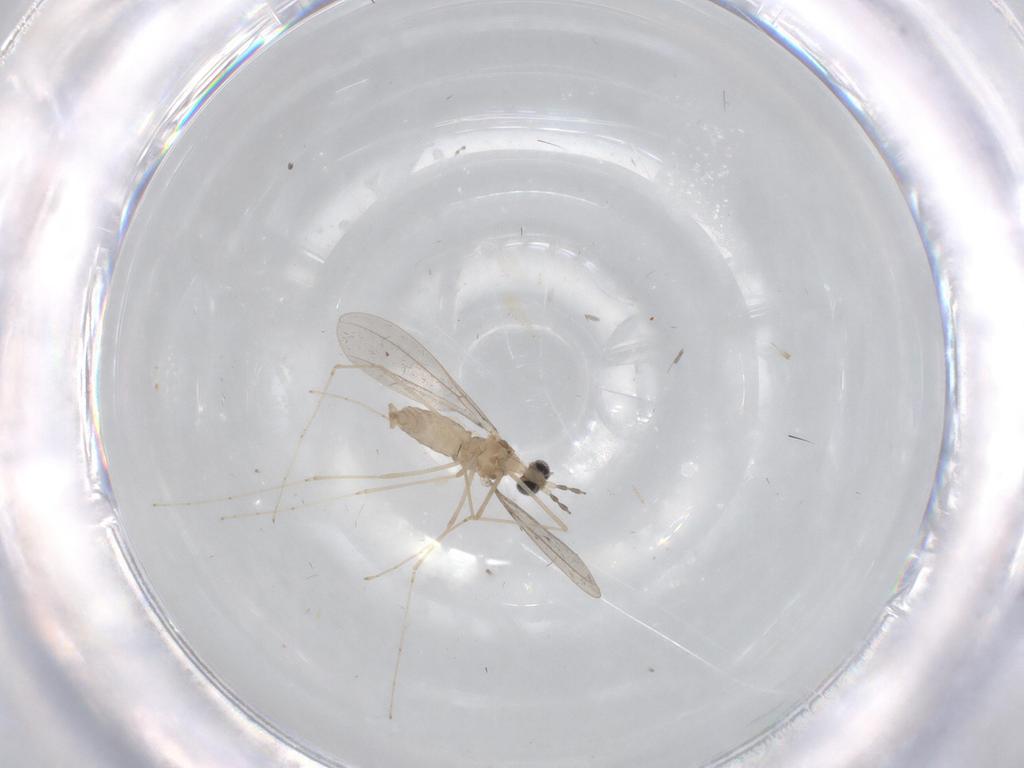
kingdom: Animalia
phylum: Arthropoda
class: Insecta
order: Diptera
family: Cecidomyiidae
